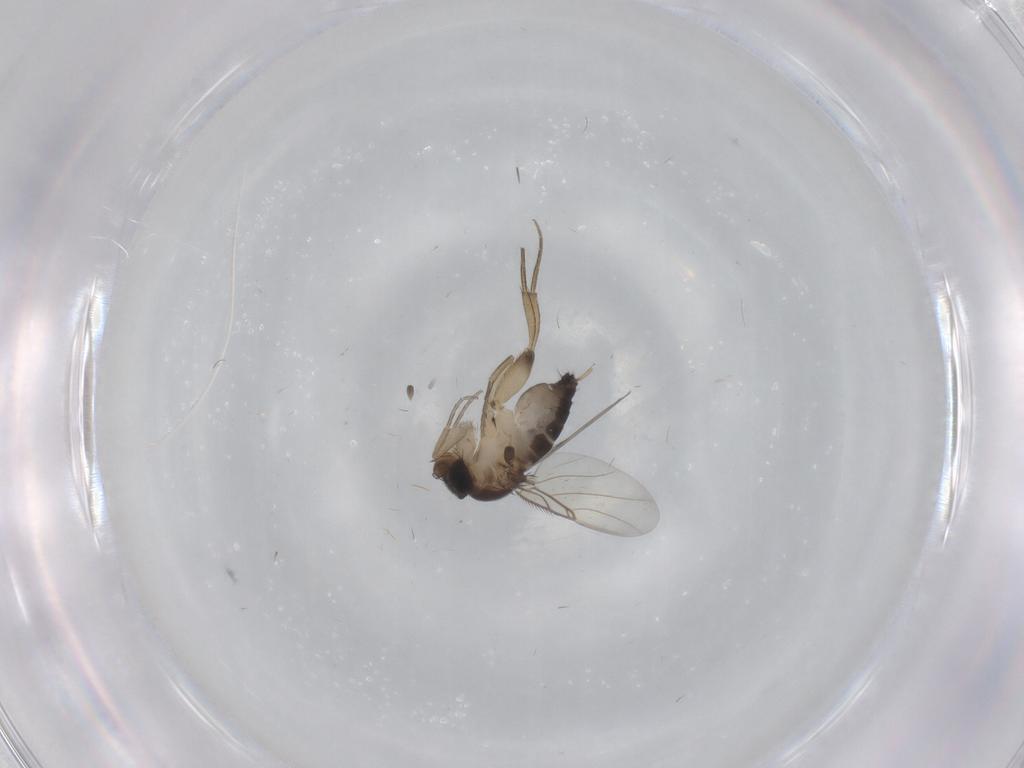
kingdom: Animalia
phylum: Arthropoda
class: Insecta
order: Diptera
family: Phoridae
